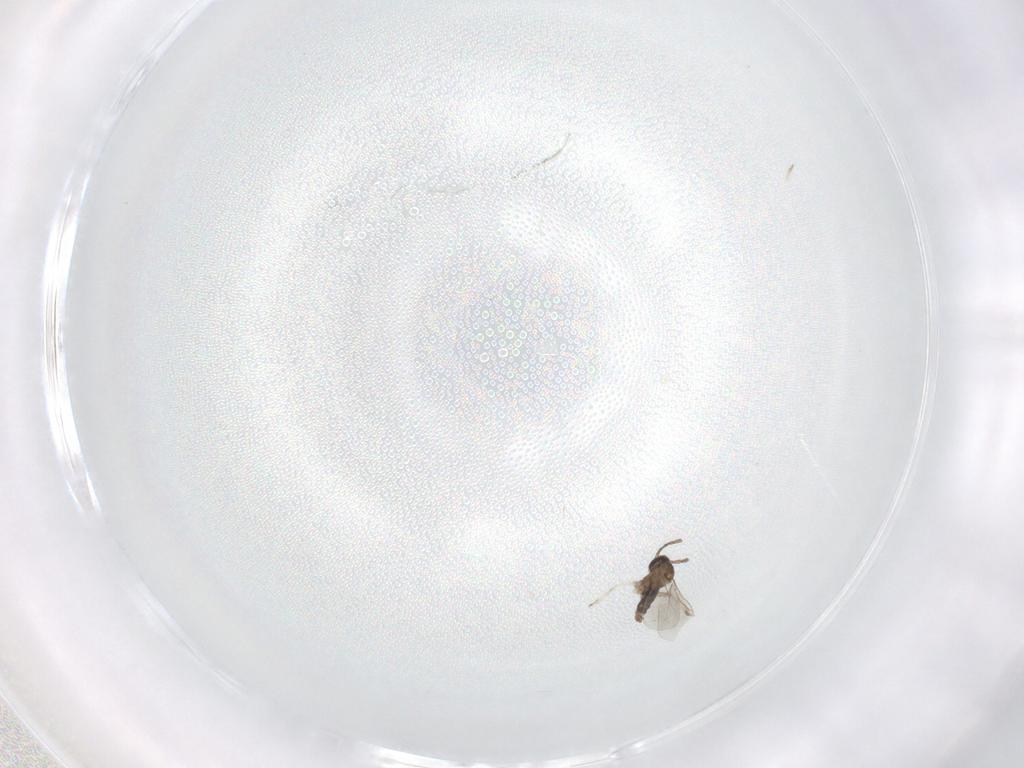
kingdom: Animalia
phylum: Arthropoda
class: Insecta
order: Diptera
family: Cecidomyiidae
